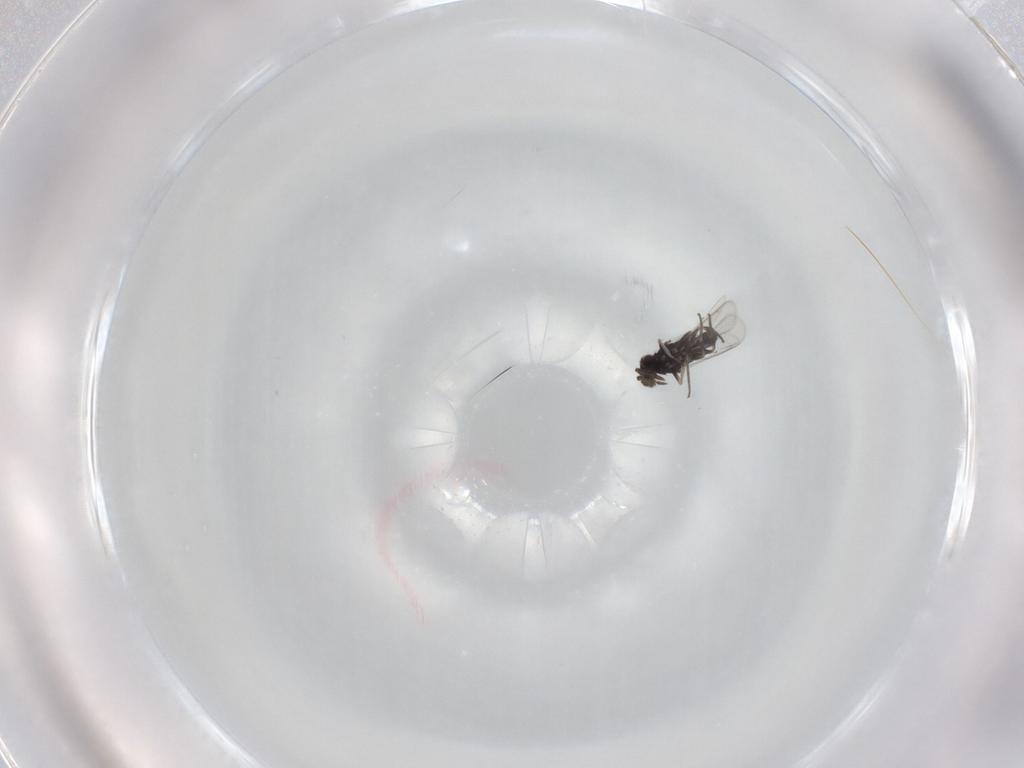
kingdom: Animalia
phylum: Arthropoda
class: Insecta
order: Hymenoptera
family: Eulophidae
